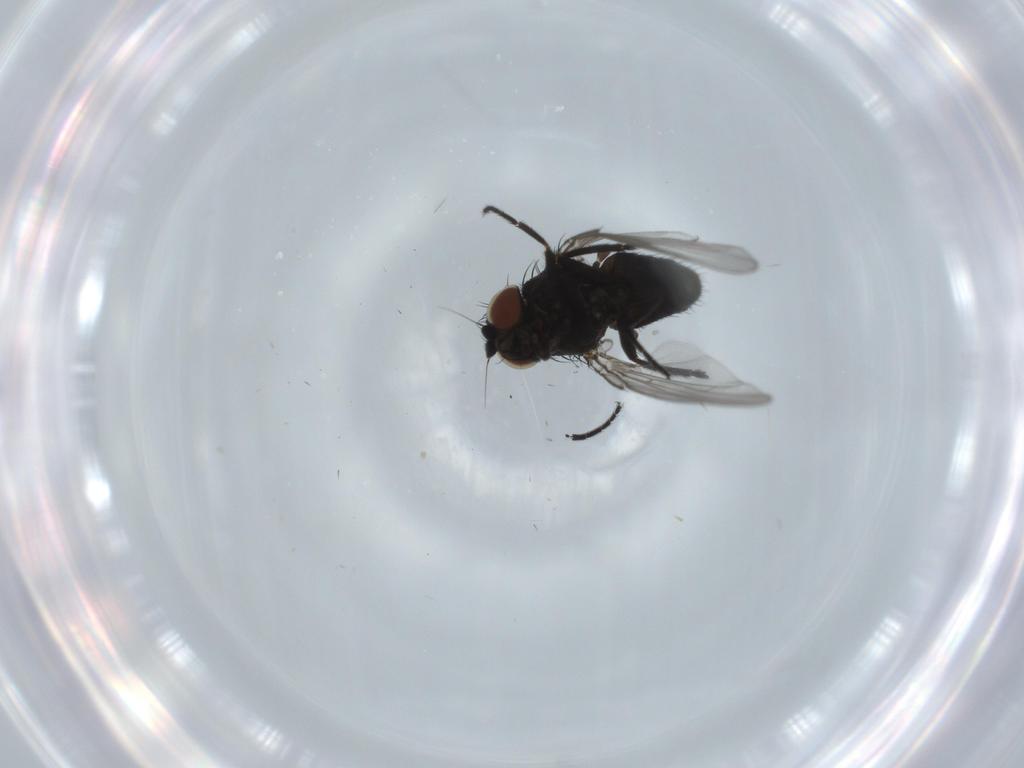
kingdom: Animalia
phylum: Arthropoda
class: Insecta
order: Diptera
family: Milichiidae
